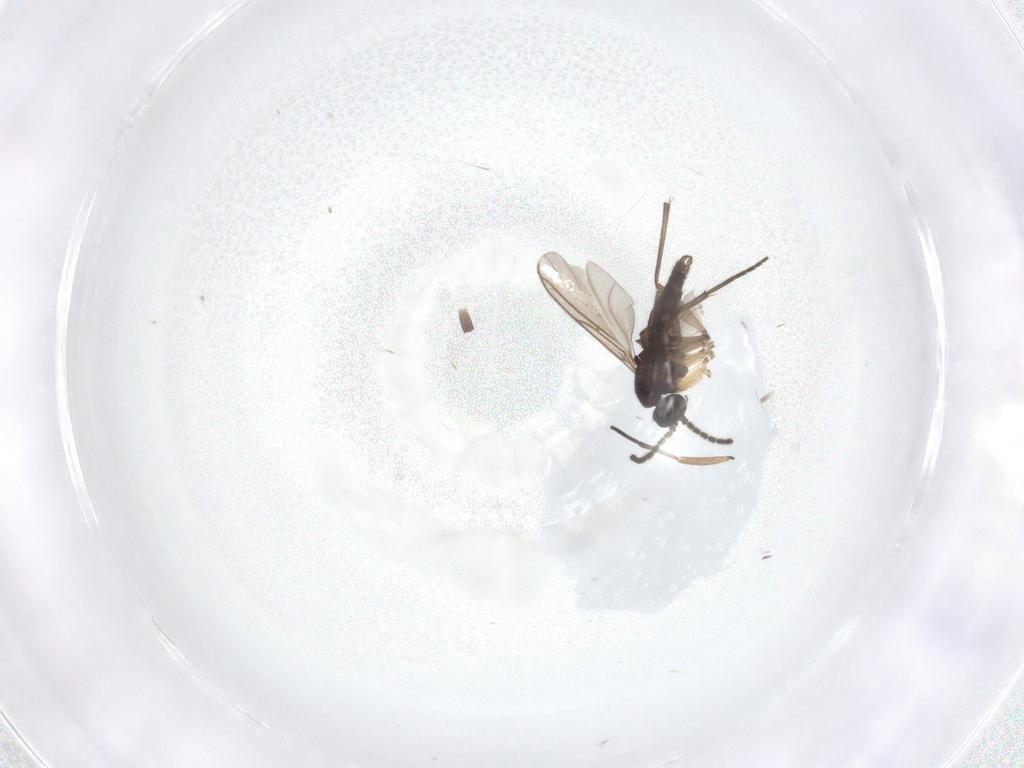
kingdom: Animalia
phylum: Arthropoda
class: Insecta
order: Diptera
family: Sciaridae
